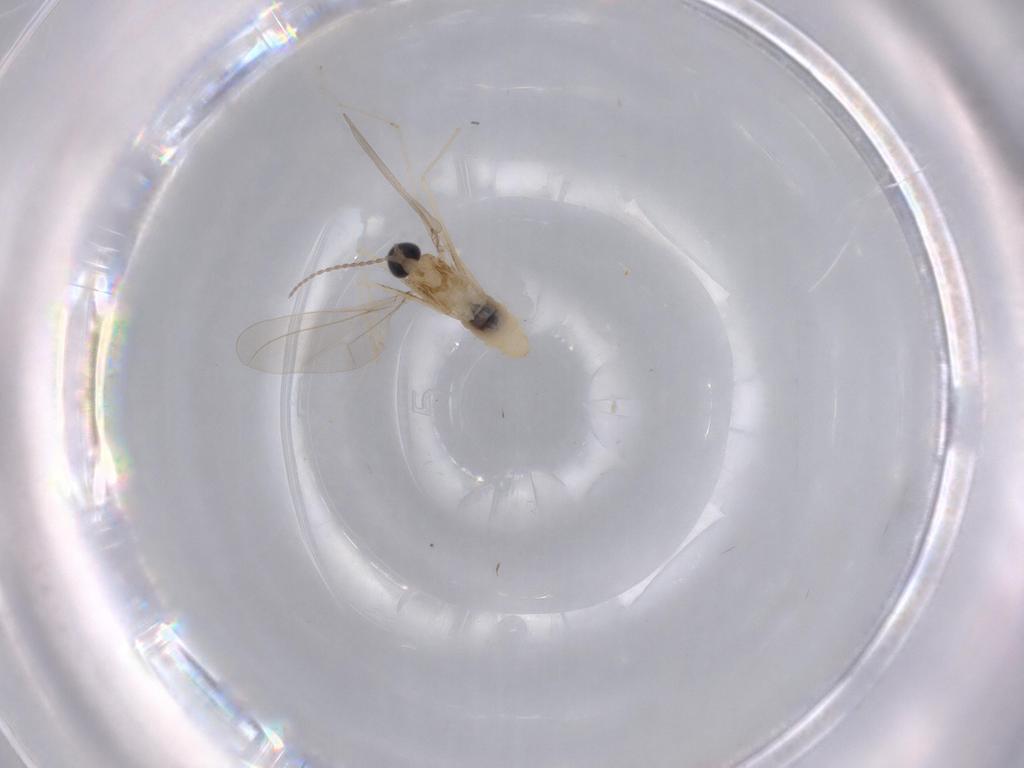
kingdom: Animalia
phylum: Arthropoda
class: Insecta
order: Diptera
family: Cecidomyiidae
